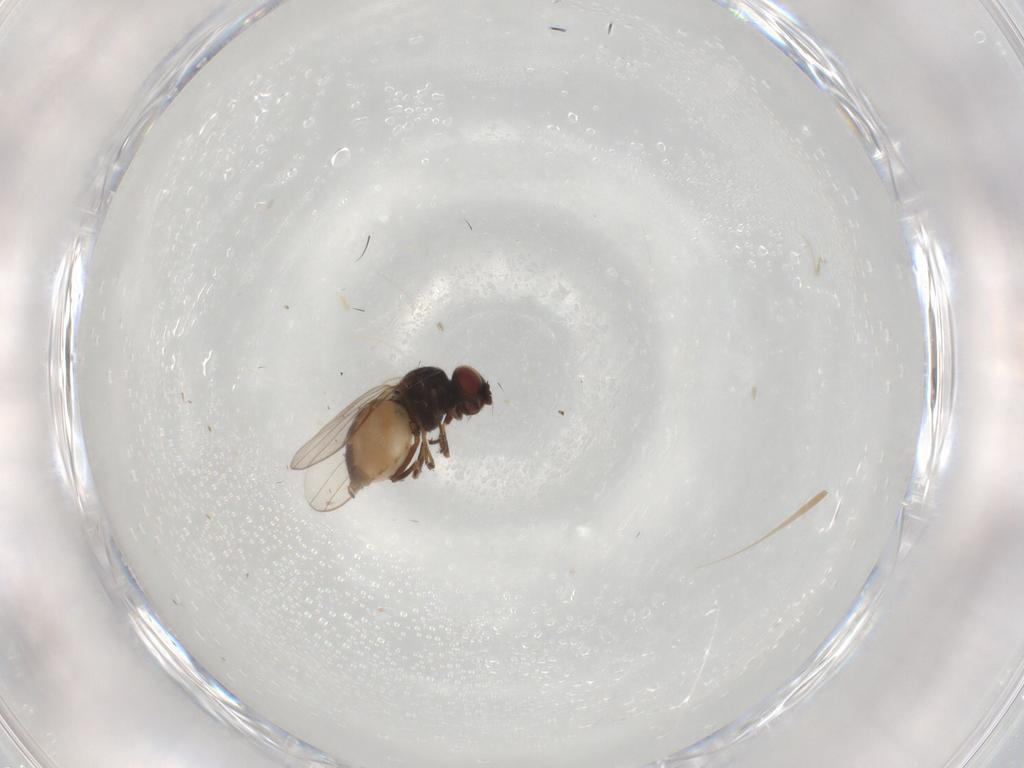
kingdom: Animalia
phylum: Arthropoda
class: Insecta
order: Diptera
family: Chloropidae
